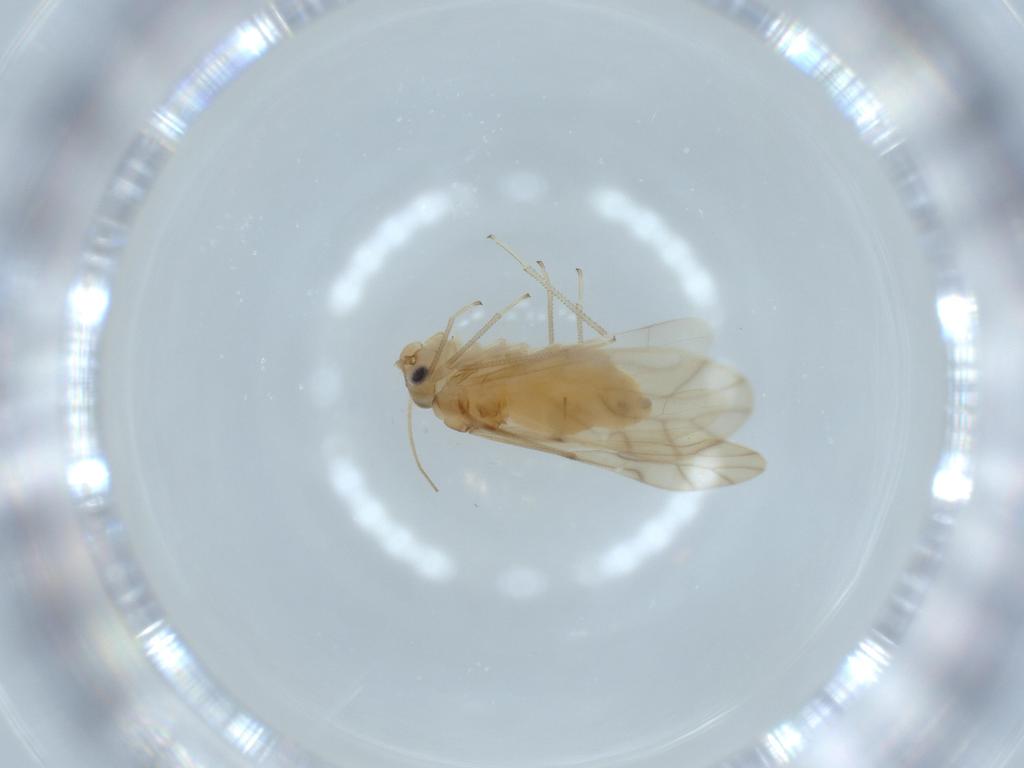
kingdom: Animalia
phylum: Arthropoda
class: Insecta
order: Psocodea
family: Caeciliusidae
